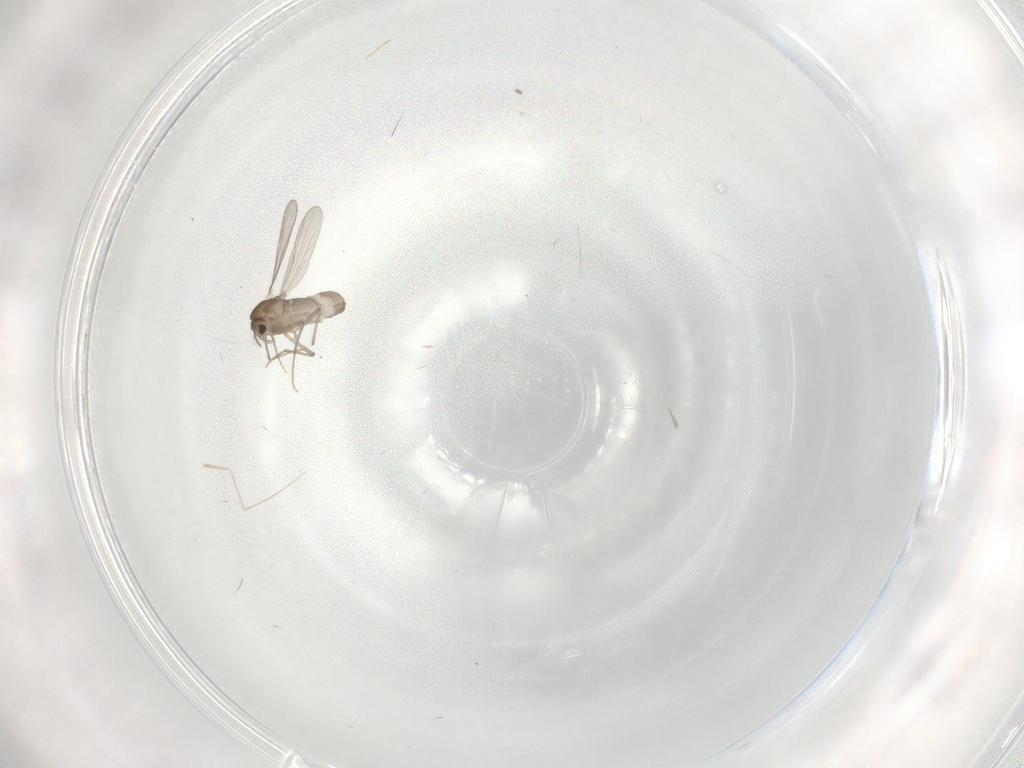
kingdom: Animalia
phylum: Arthropoda
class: Insecta
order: Diptera
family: Chironomidae
